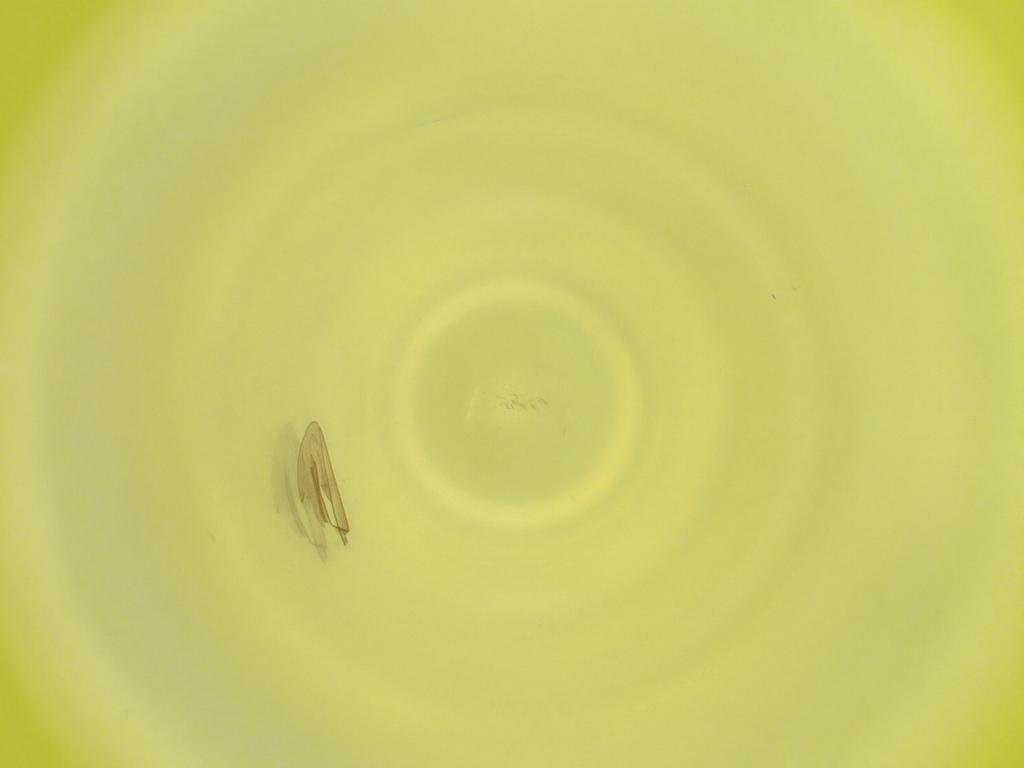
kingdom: Animalia
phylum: Arthropoda
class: Insecta
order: Diptera
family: Cecidomyiidae
